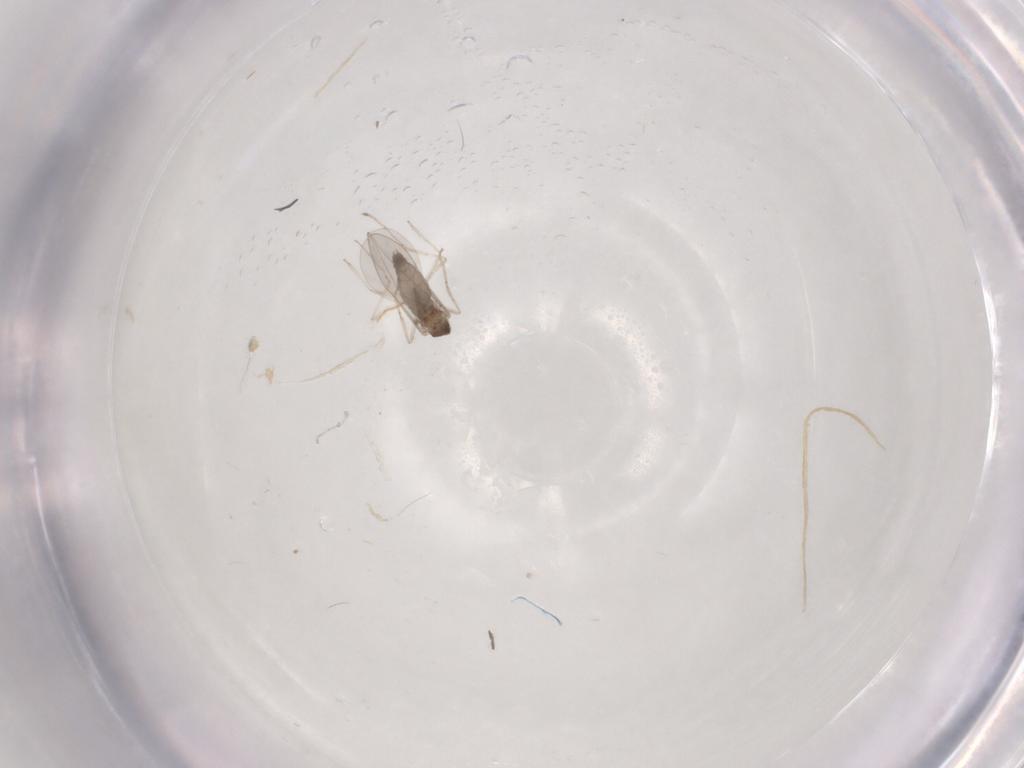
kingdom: Animalia
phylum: Arthropoda
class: Insecta
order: Diptera
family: Cecidomyiidae
